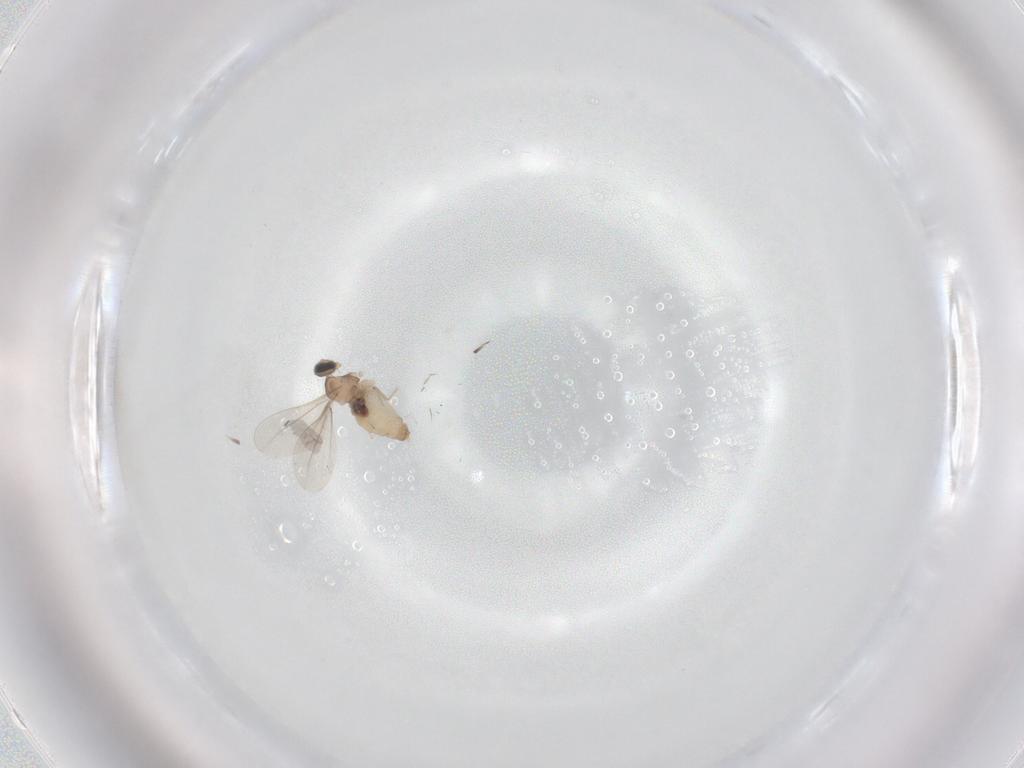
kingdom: Animalia
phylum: Arthropoda
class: Insecta
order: Diptera
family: Cecidomyiidae
